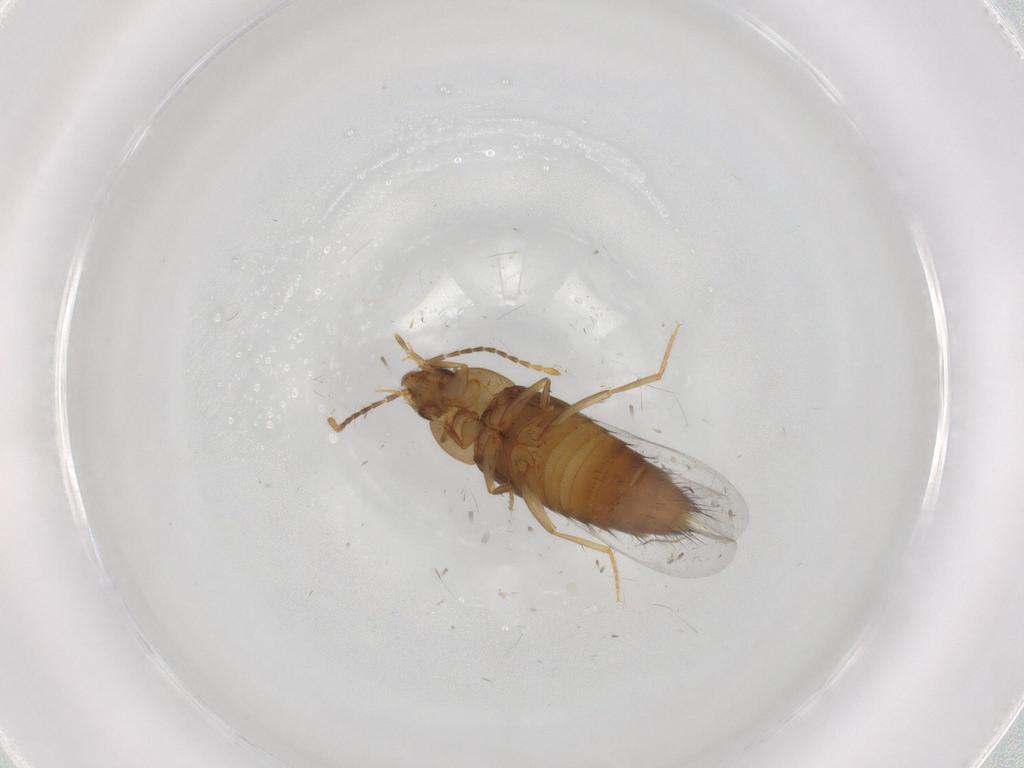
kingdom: Animalia
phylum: Arthropoda
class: Insecta
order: Coleoptera
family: Staphylinidae
